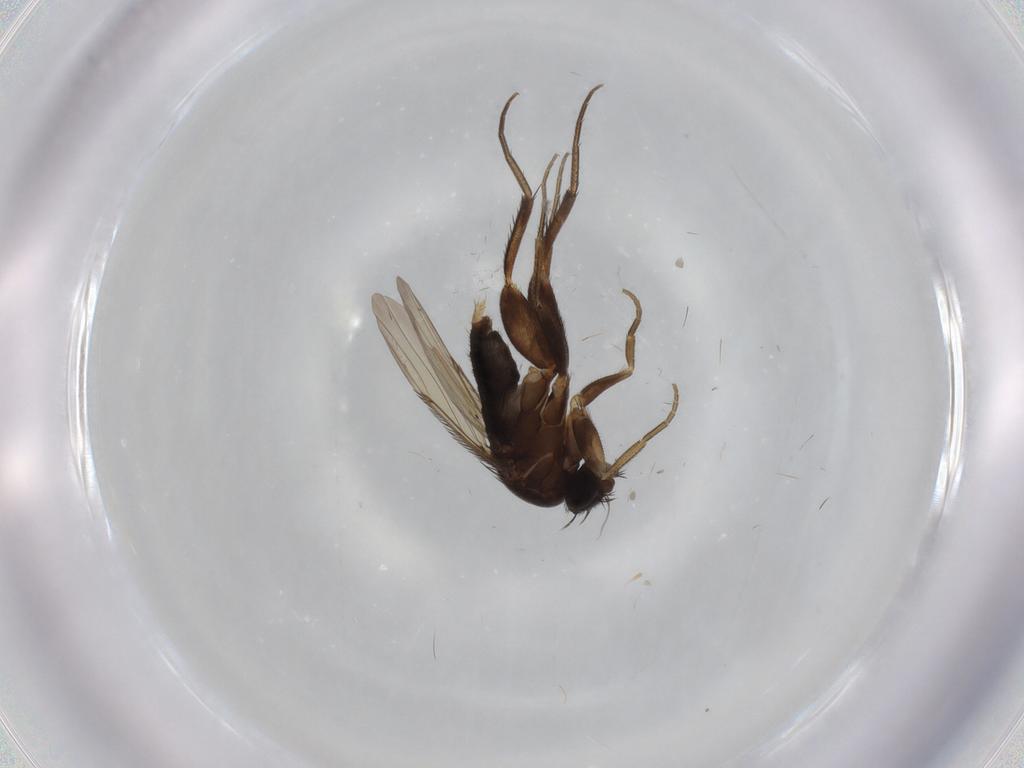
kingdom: Animalia
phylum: Arthropoda
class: Insecta
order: Diptera
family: Phoridae
